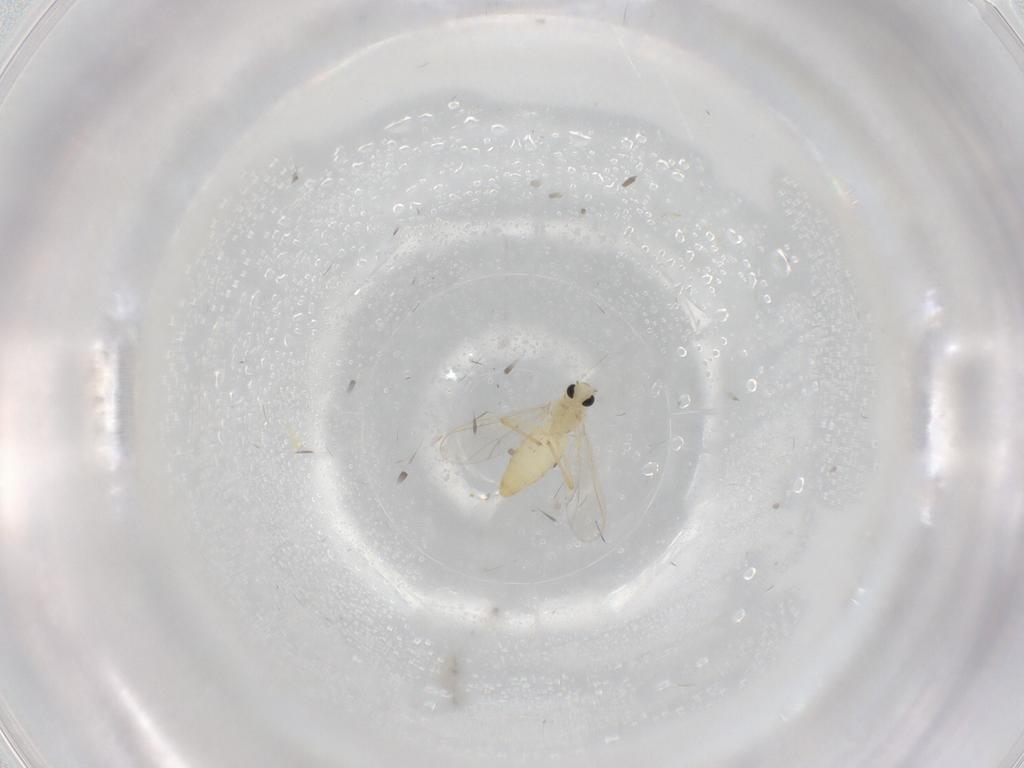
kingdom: Animalia
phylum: Arthropoda
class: Insecta
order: Diptera
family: Chironomidae
